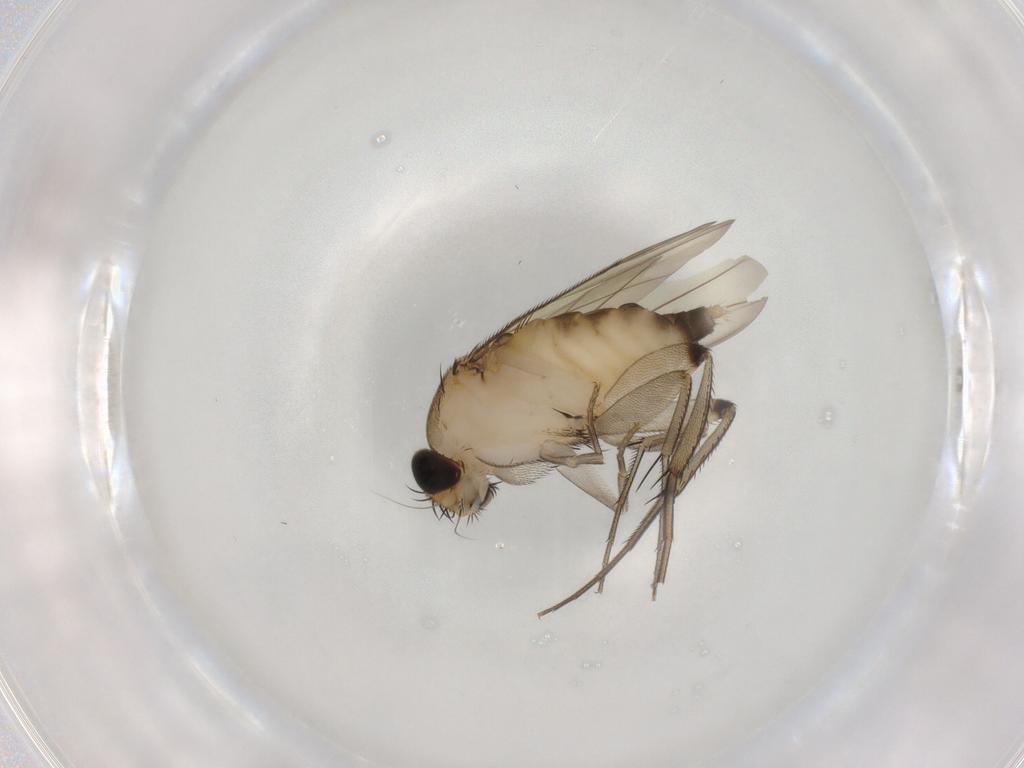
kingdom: Animalia
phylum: Arthropoda
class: Insecta
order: Diptera
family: Phoridae
